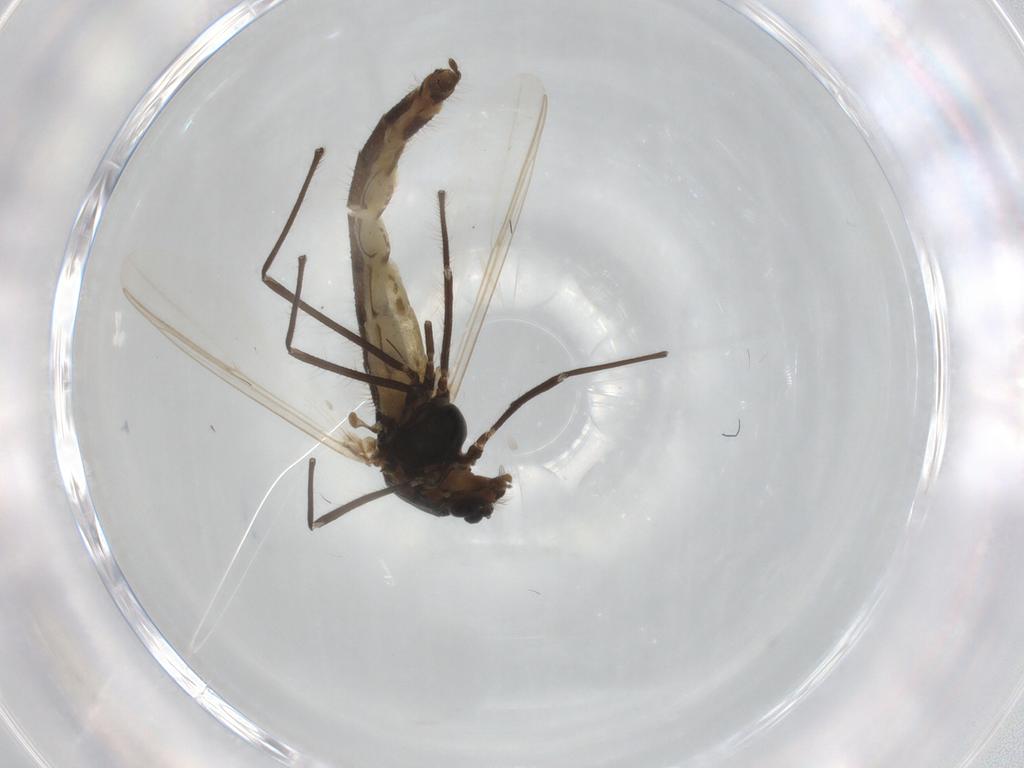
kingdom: Animalia
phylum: Arthropoda
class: Insecta
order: Diptera
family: Chironomidae
